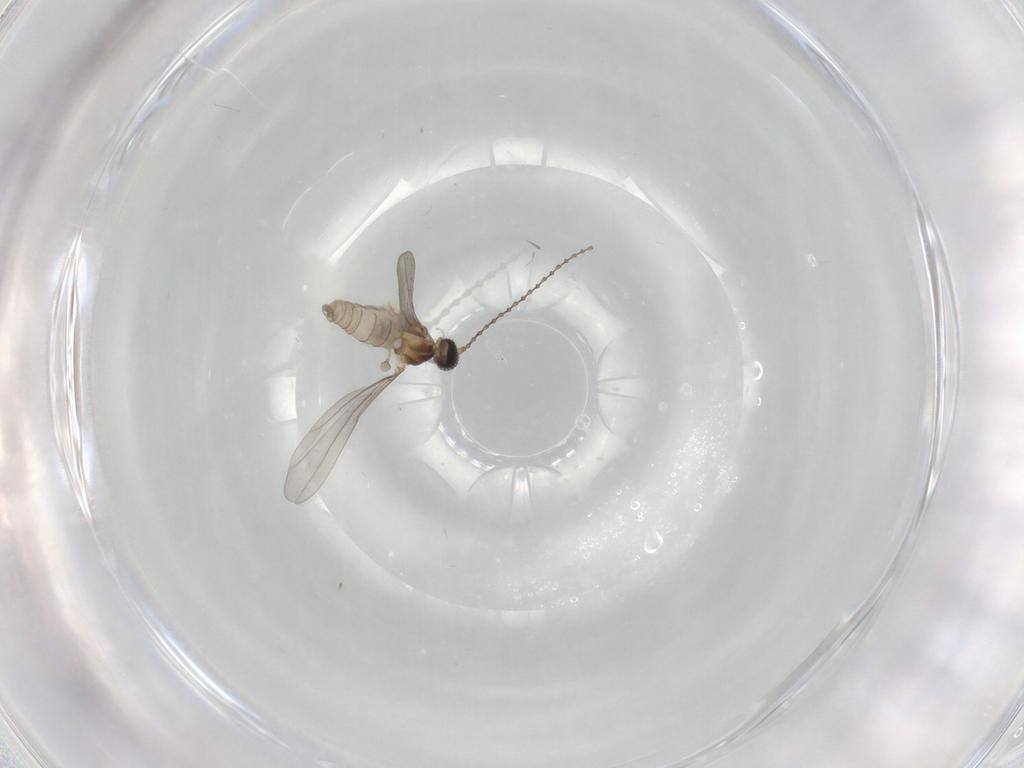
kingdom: Animalia
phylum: Arthropoda
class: Insecta
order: Diptera
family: Cecidomyiidae
